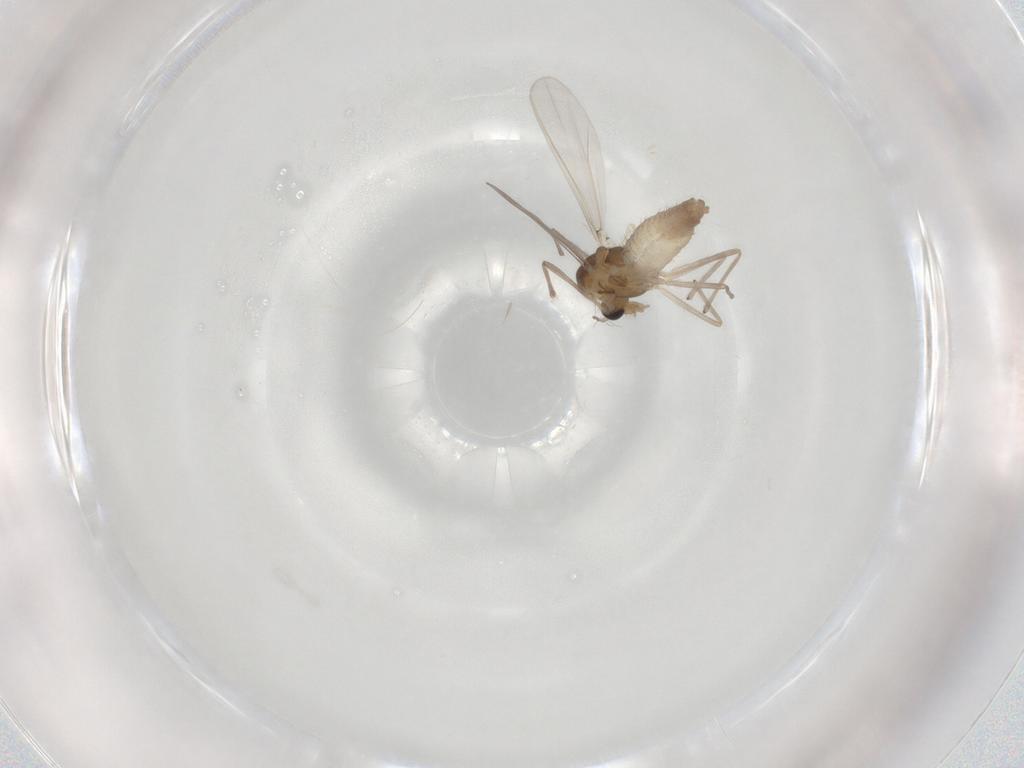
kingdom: Animalia
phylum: Arthropoda
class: Insecta
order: Diptera
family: Chironomidae
